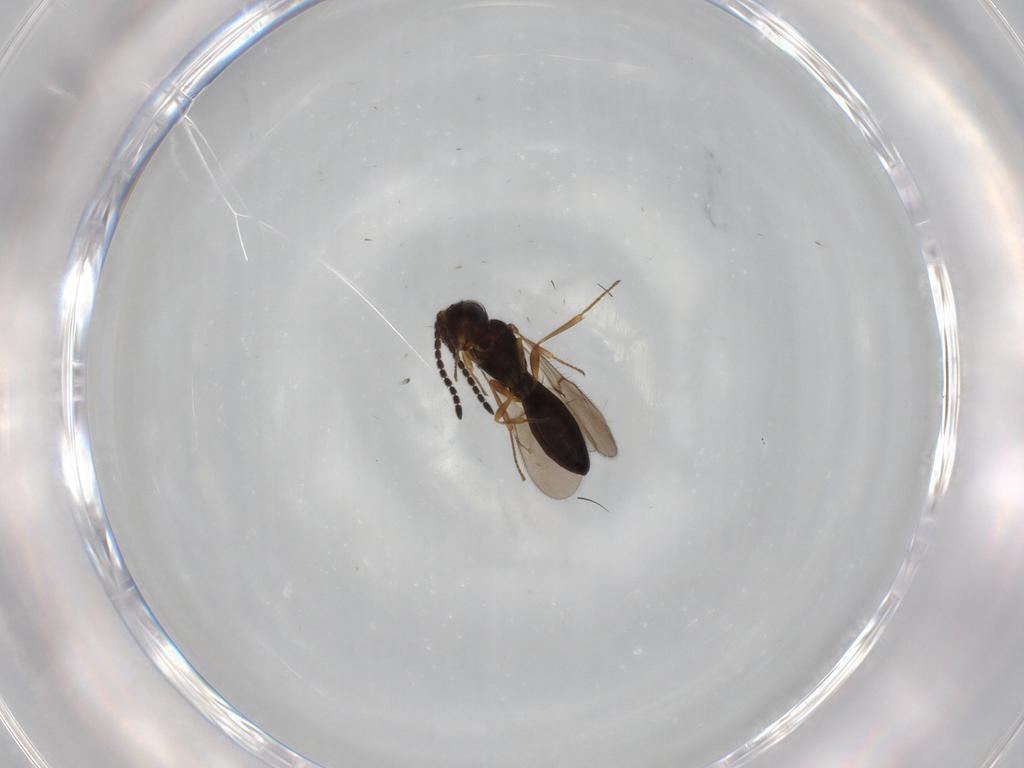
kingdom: Animalia
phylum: Arthropoda
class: Insecta
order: Hymenoptera
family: Scelionidae
